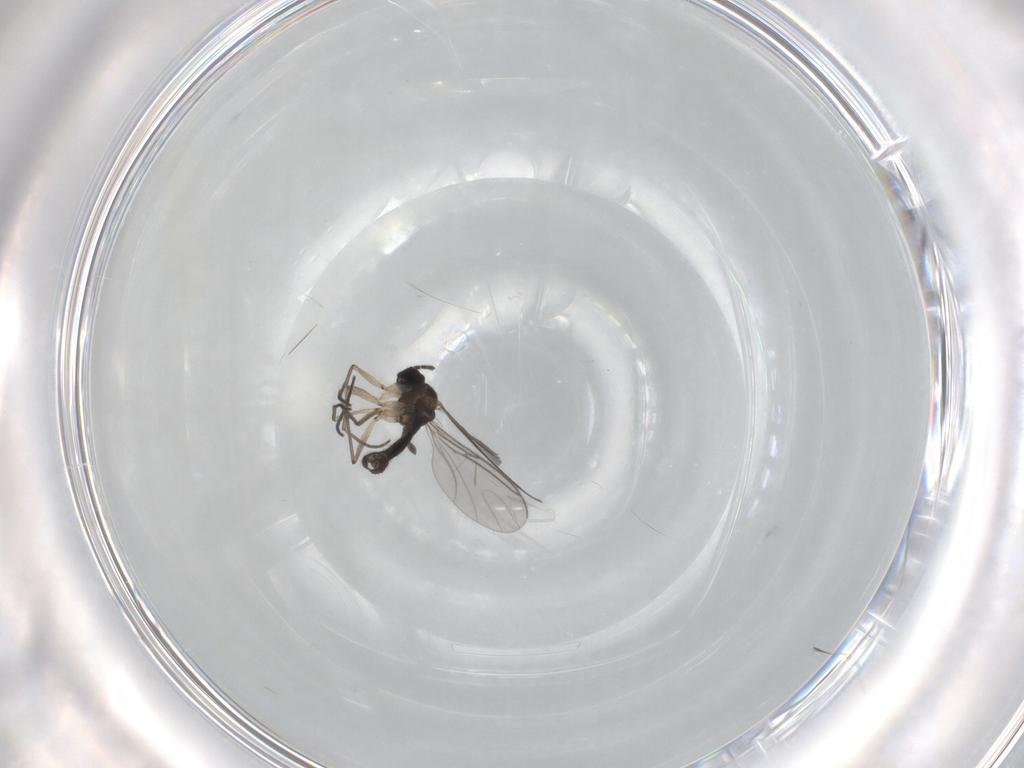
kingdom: Animalia
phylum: Arthropoda
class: Insecta
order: Diptera
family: Sciaridae
